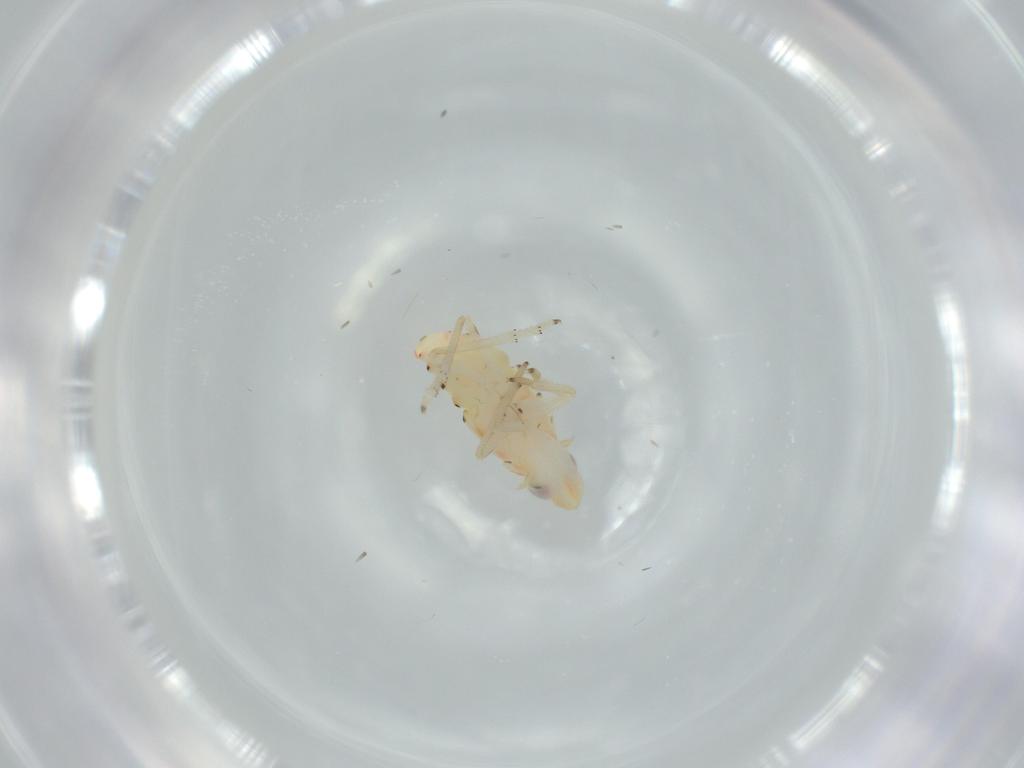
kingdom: Animalia
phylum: Arthropoda
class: Insecta
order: Hemiptera
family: Tropiduchidae
